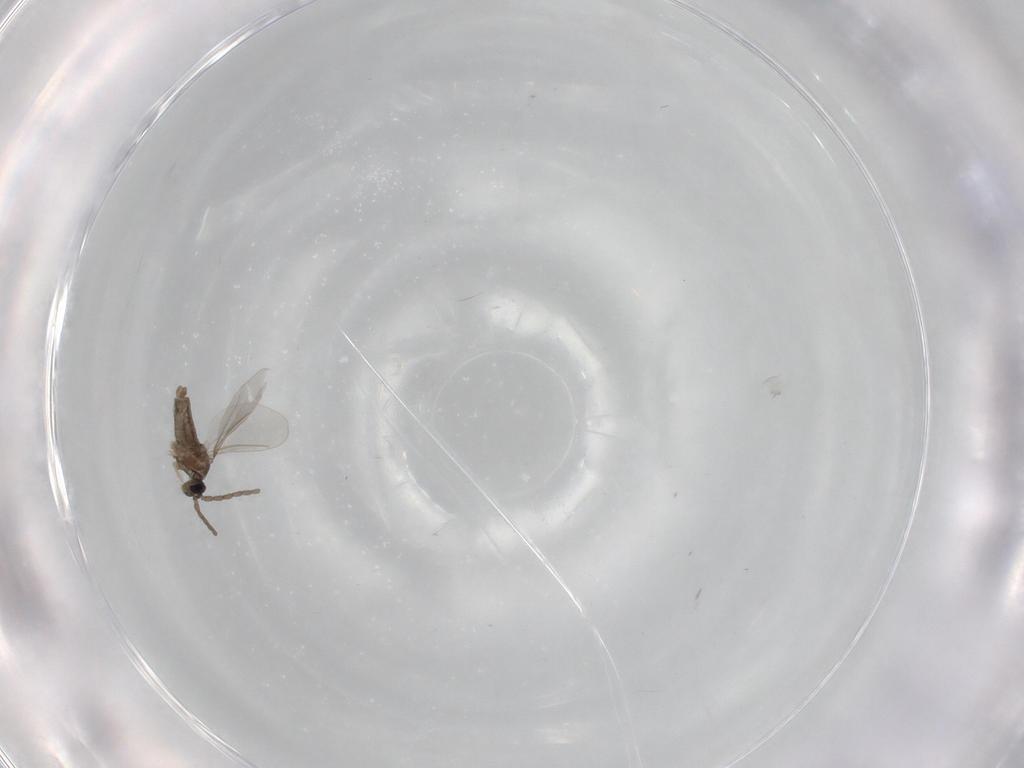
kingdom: Animalia
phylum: Arthropoda
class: Insecta
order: Diptera
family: Cecidomyiidae
